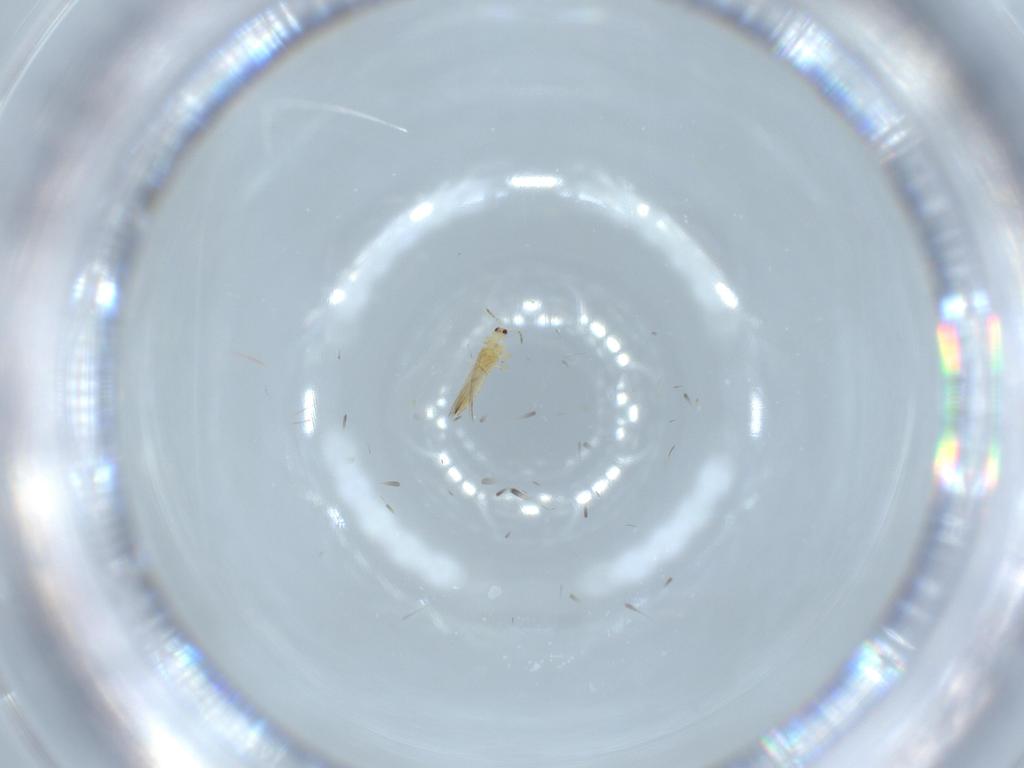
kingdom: Animalia
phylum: Arthropoda
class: Insecta
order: Thysanoptera
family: Thripidae
